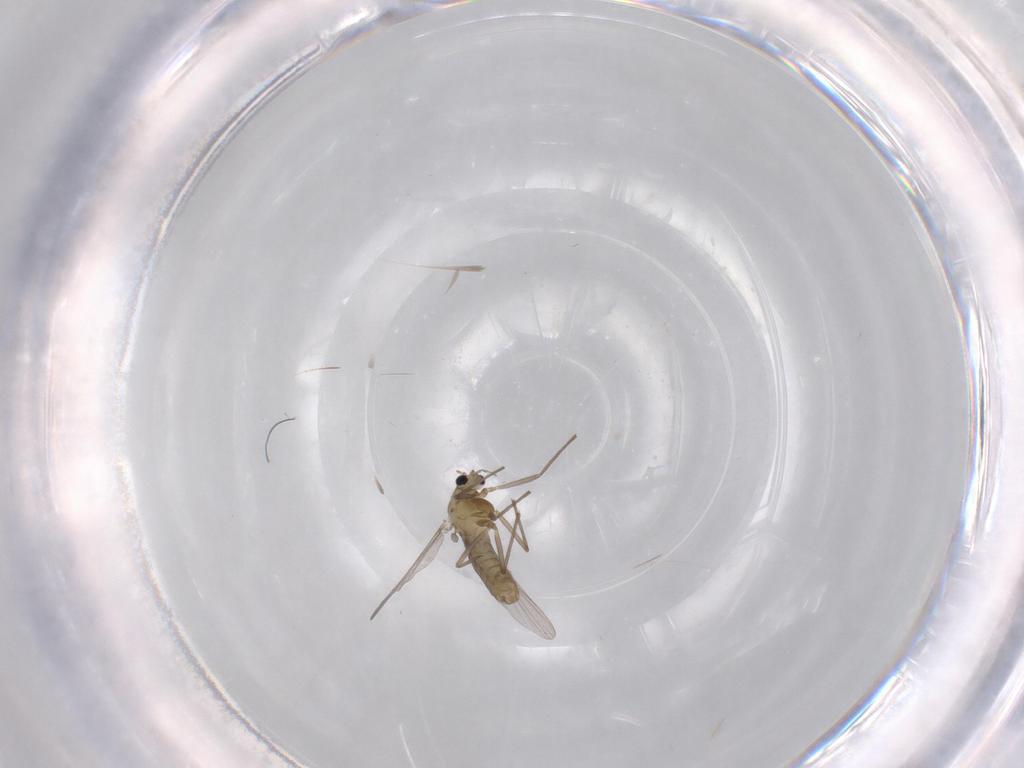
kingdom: Animalia
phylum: Arthropoda
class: Insecta
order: Diptera
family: Chironomidae
